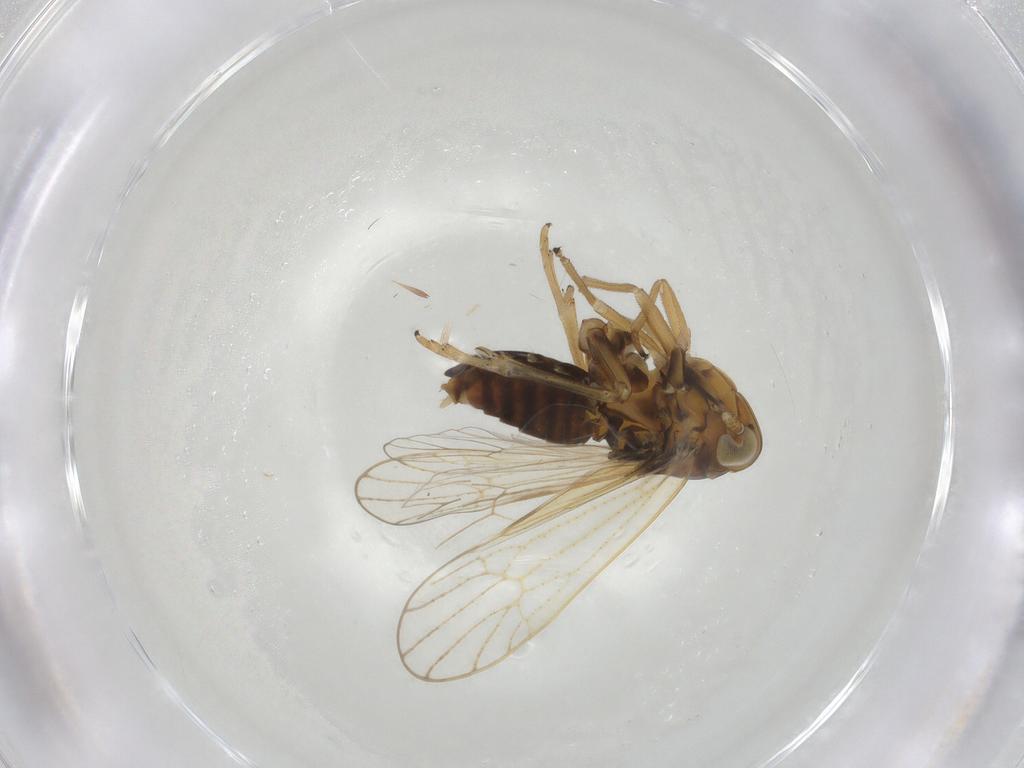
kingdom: Animalia
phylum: Arthropoda
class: Insecta
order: Hemiptera
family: Delphacidae
